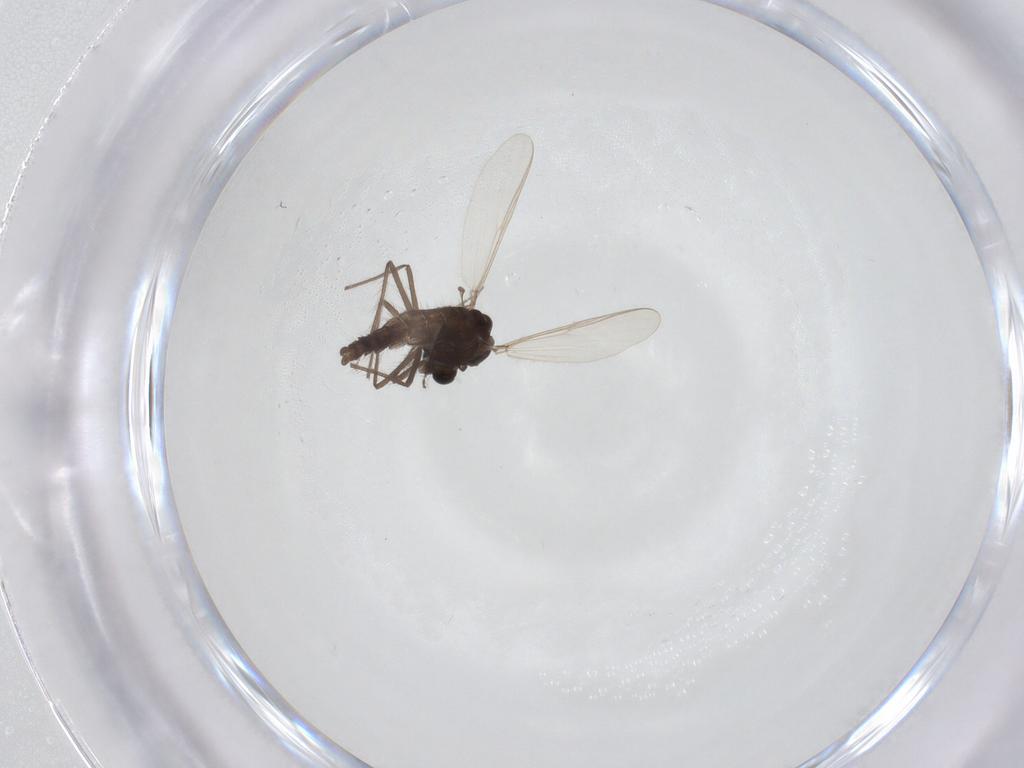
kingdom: Animalia
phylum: Arthropoda
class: Insecta
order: Diptera
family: Chironomidae
